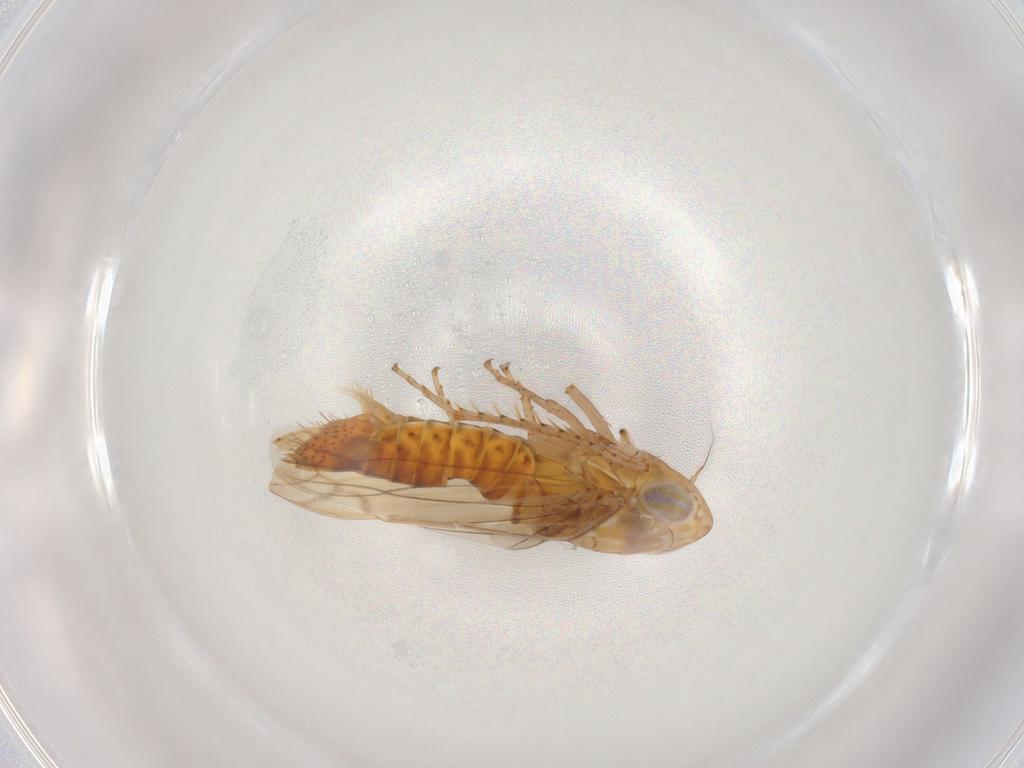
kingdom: Animalia
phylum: Arthropoda
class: Insecta
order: Hemiptera
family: Cicadellidae
